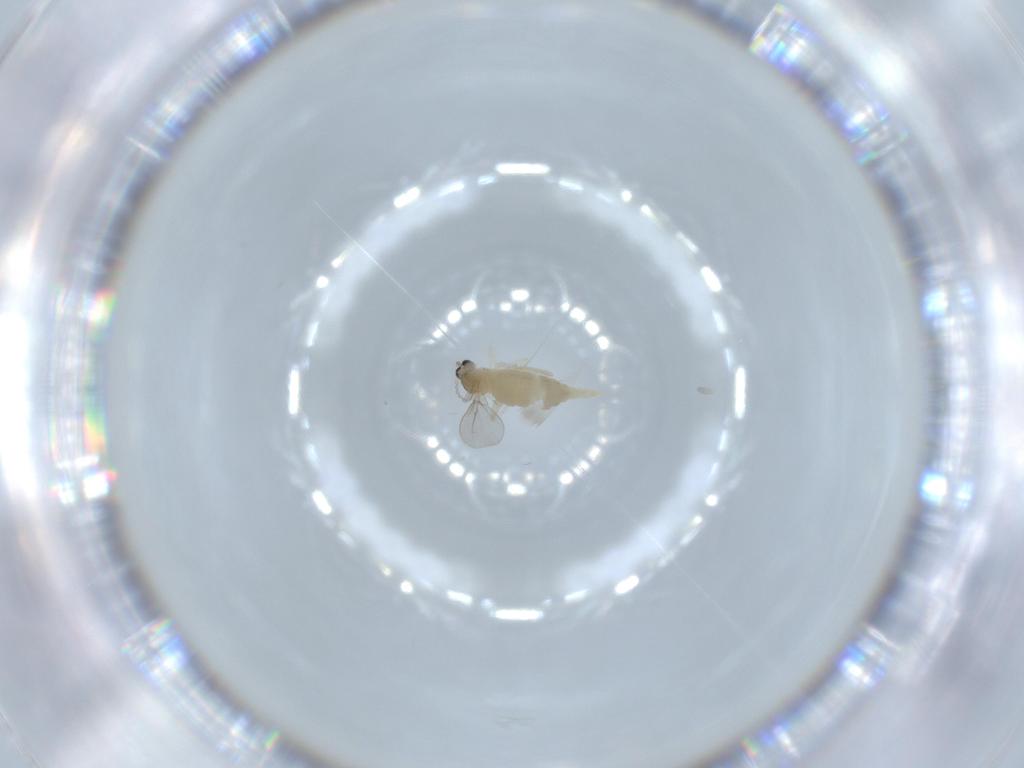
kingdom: Animalia
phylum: Arthropoda
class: Insecta
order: Diptera
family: Cecidomyiidae
